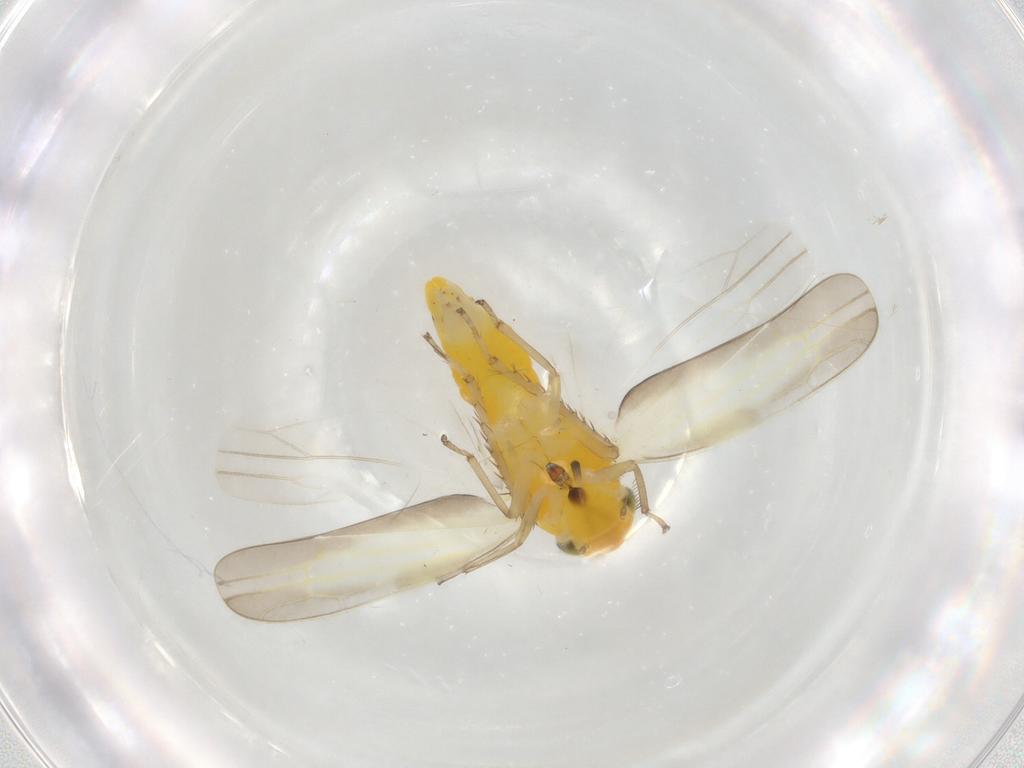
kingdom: Animalia
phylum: Arthropoda
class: Insecta
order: Hemiptera
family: Cicadellidae
